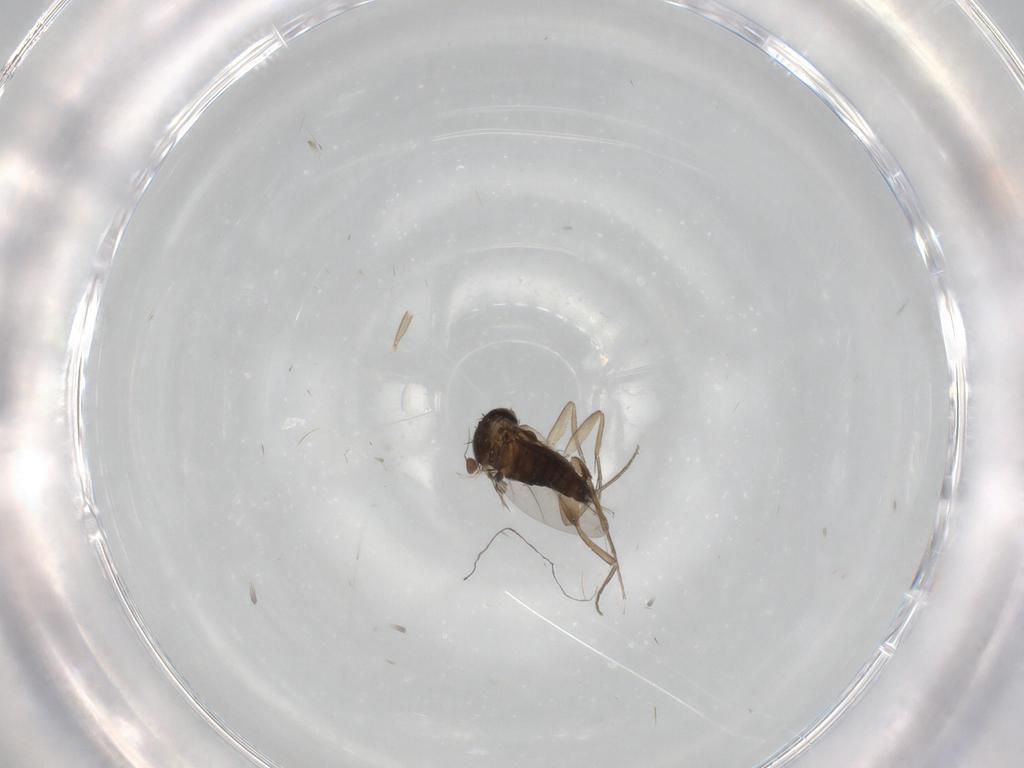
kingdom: Animalia
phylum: Arthropoda
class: Insecta
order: Diptera
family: Phoridae
